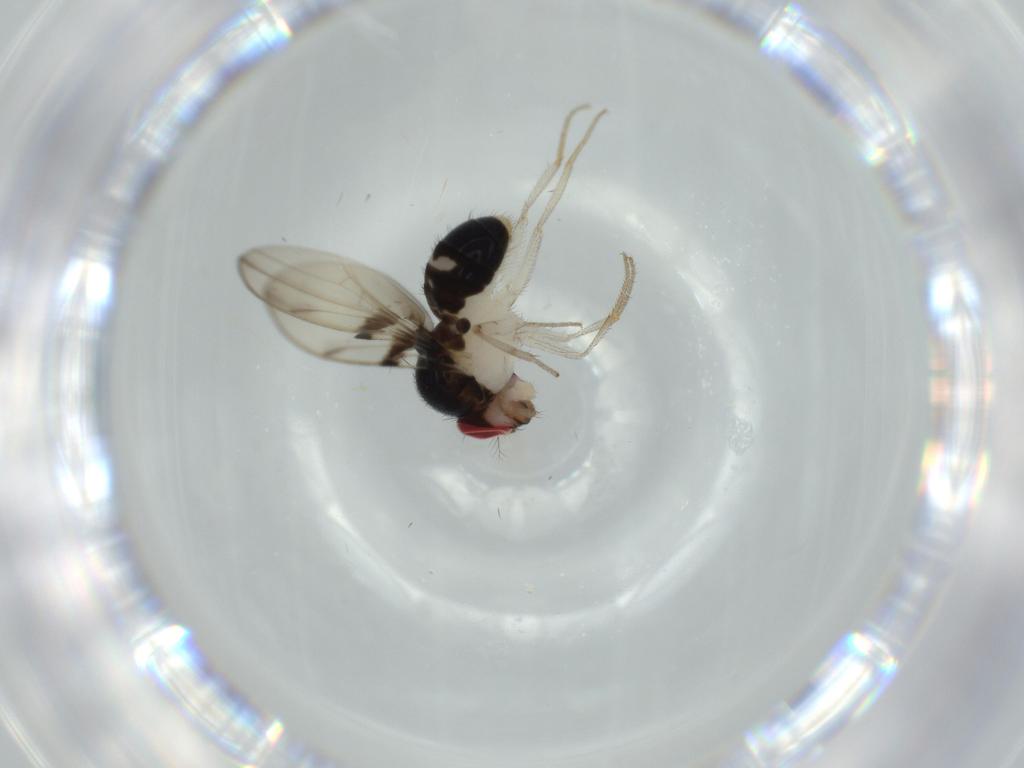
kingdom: Animalia
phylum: Arthropoda
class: Insecta
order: Diptera
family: Drosophilidae
